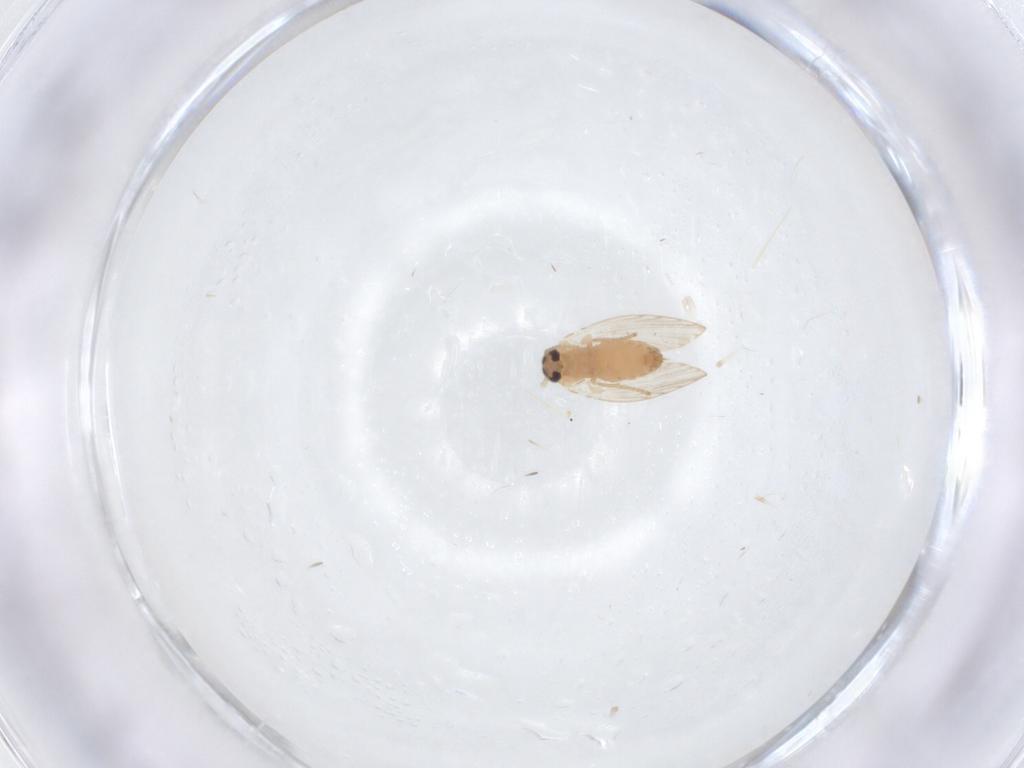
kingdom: Animalia
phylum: Arthropoda
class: Insecta
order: Diptera
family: Psychodidae
